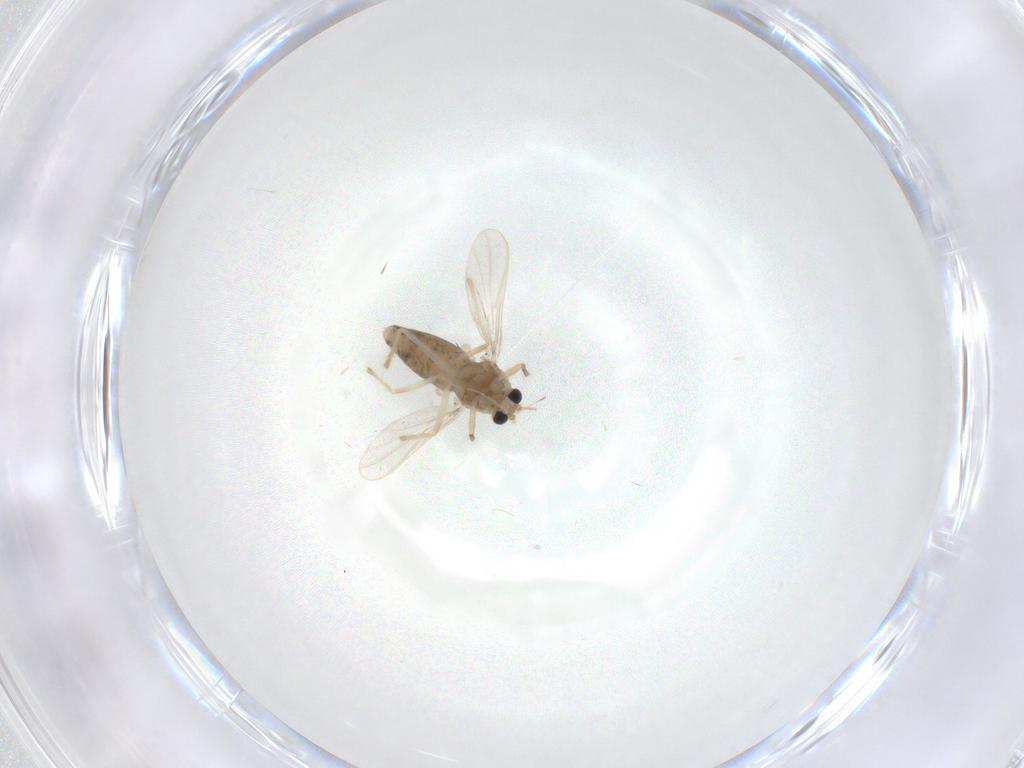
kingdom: Animalia
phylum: Arthropoda
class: Insecta
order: Diptera
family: Chironomidae
